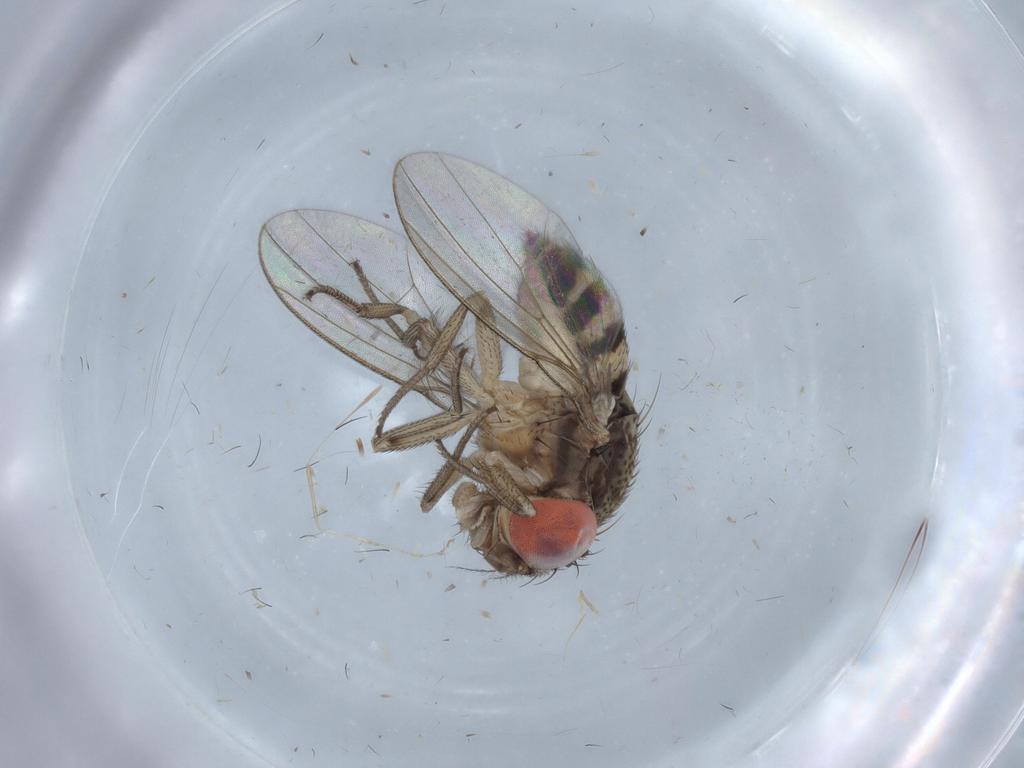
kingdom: Animalia
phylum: Arthropoda
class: Insecta
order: Diptera
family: Drosophilidae
